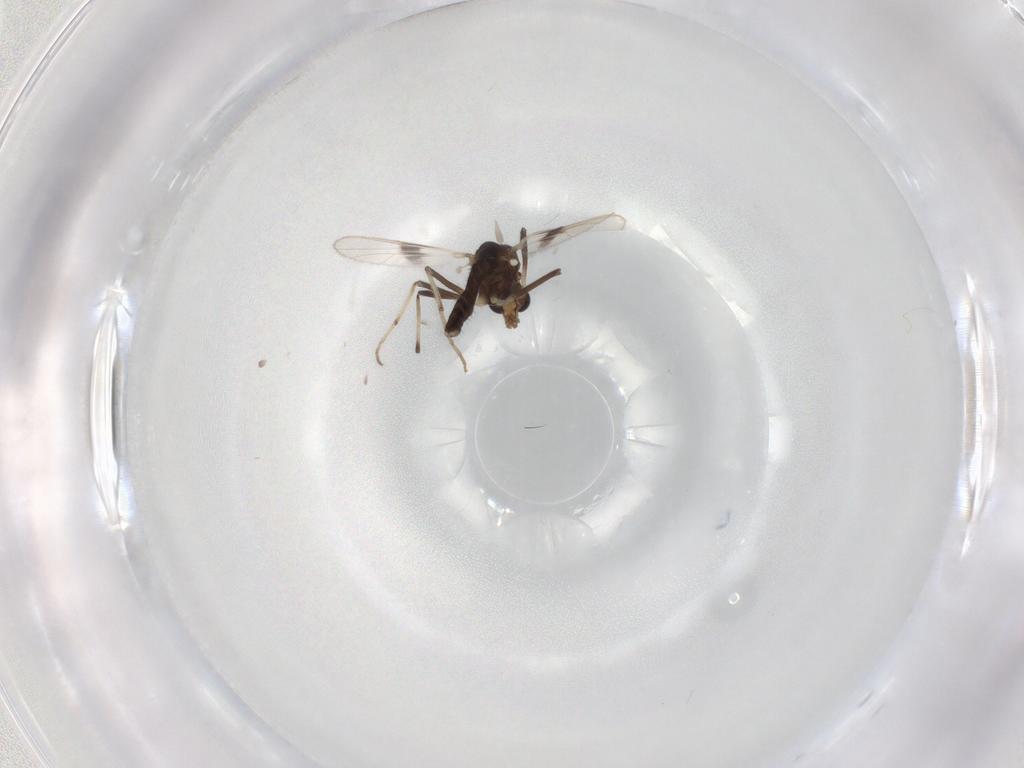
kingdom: Animalia
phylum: Arthropoda
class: Insecta
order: Diptera
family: Chironomidae
